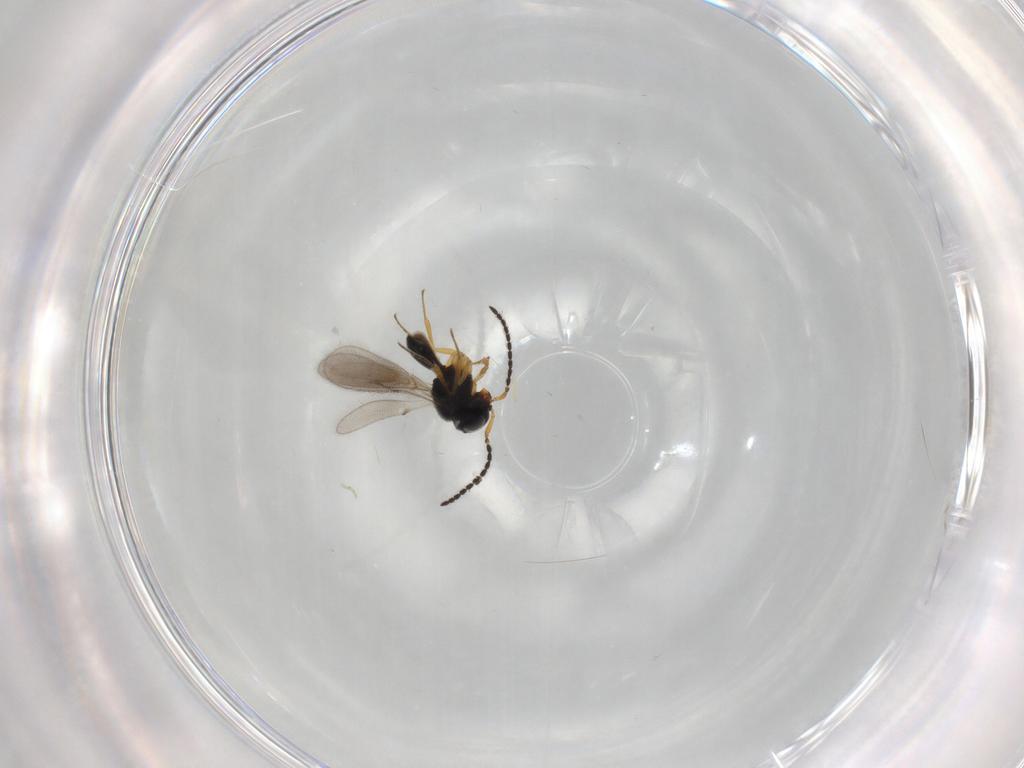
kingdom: Animalia
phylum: Arthropoda
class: Insecta
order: Hymenoptera
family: Scelionidae
